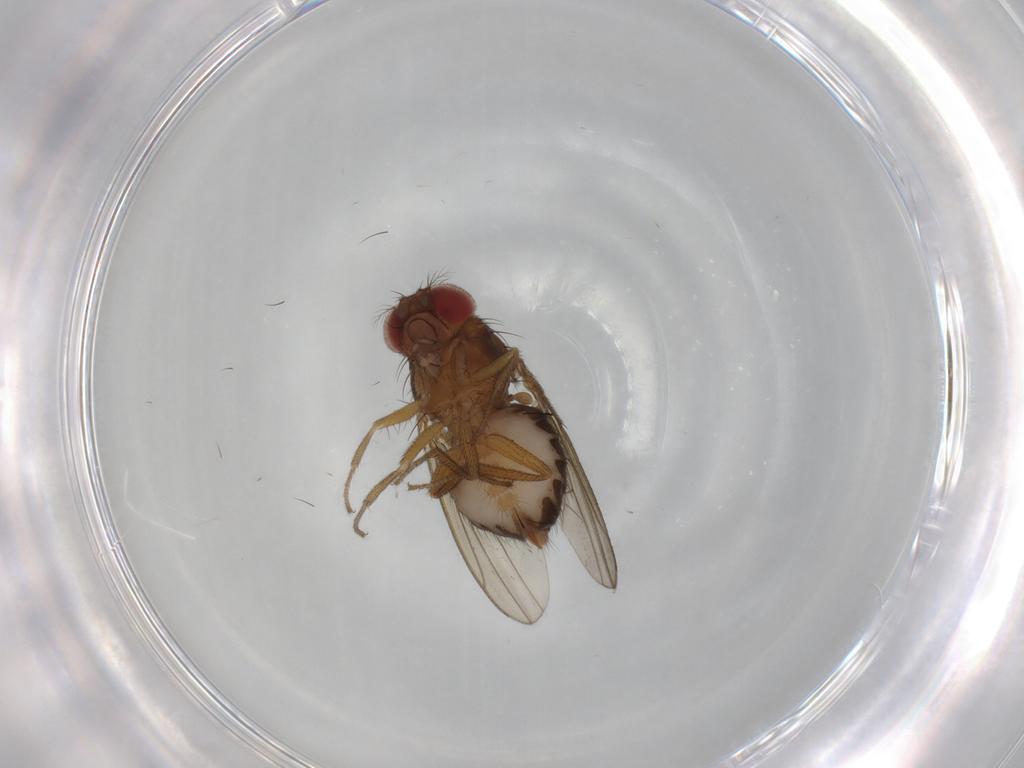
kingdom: Animalia
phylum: Arthropoda
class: Insecta
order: Diptera
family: Drosophilidae
